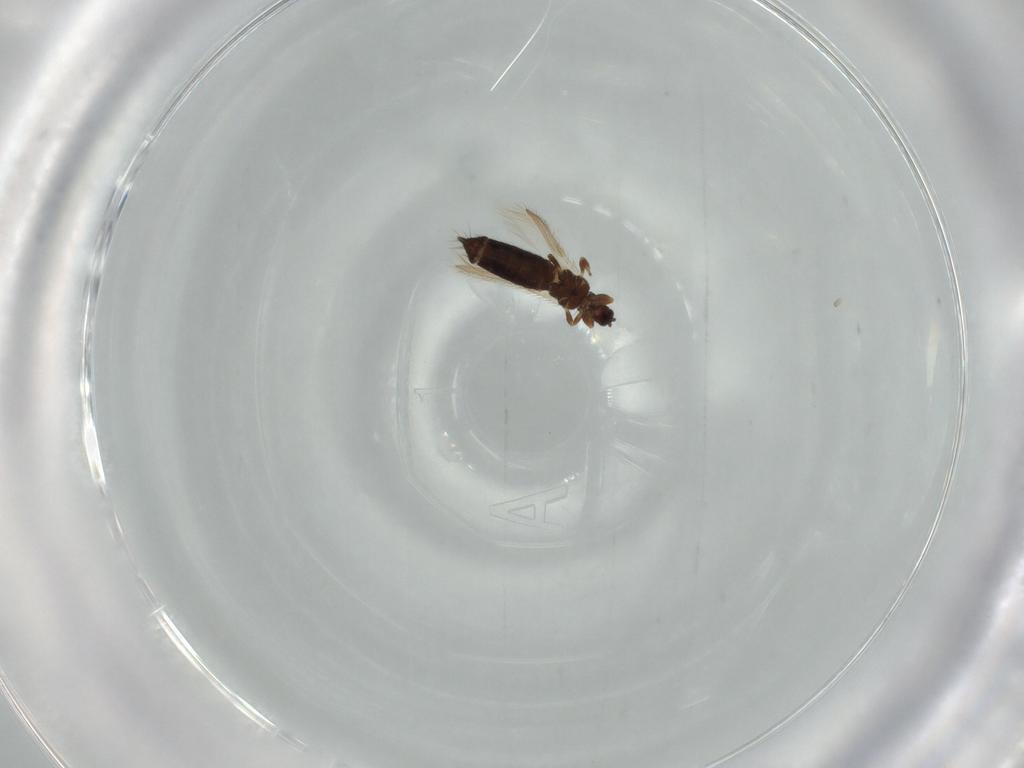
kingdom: Animalia
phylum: Arthropoda
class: Insecta
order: Thysanoptera
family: Thripidae
